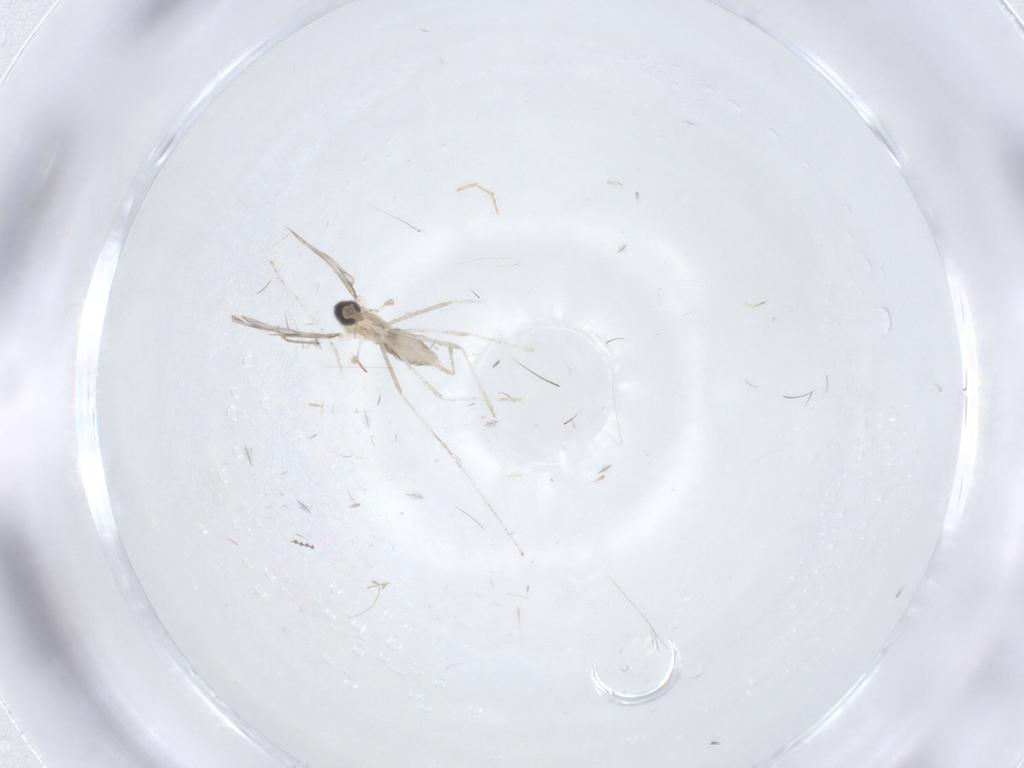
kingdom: Animalia
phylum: Arthropoda
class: Insecta
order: Diptera
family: Cecidomyiidae
